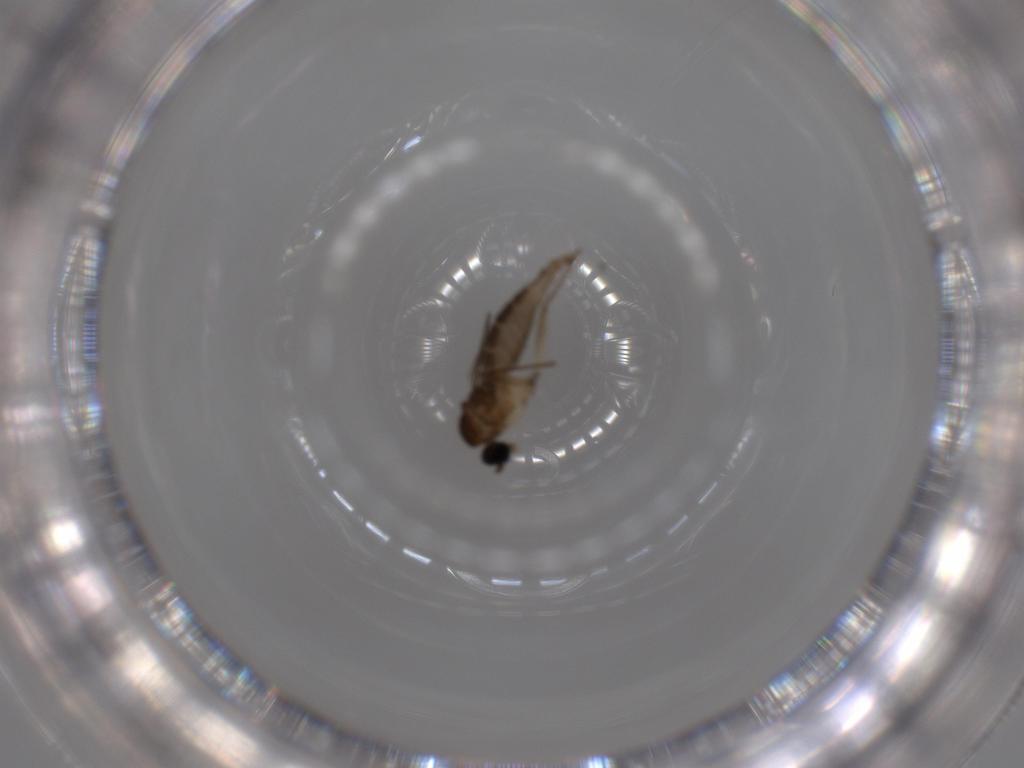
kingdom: Animalia
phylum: Arthropoda
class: Insecta
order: Diptera
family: Sciaridae
